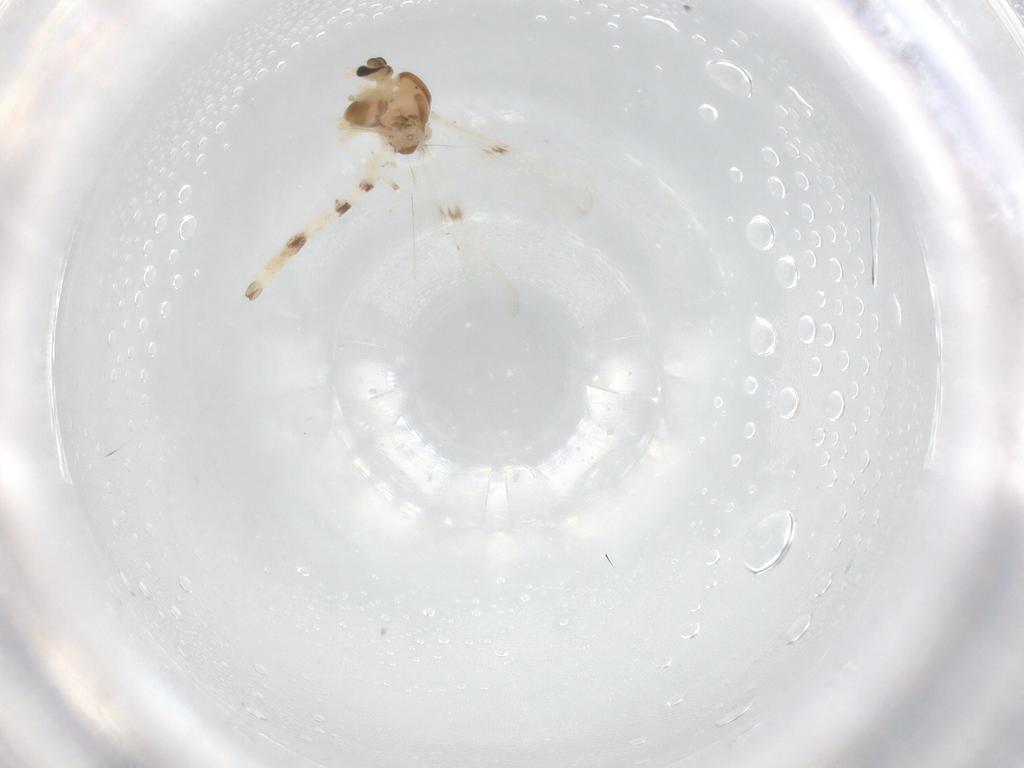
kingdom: Animalia
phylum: Arthropoda
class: Insecta
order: Diptera
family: Chironomidae
